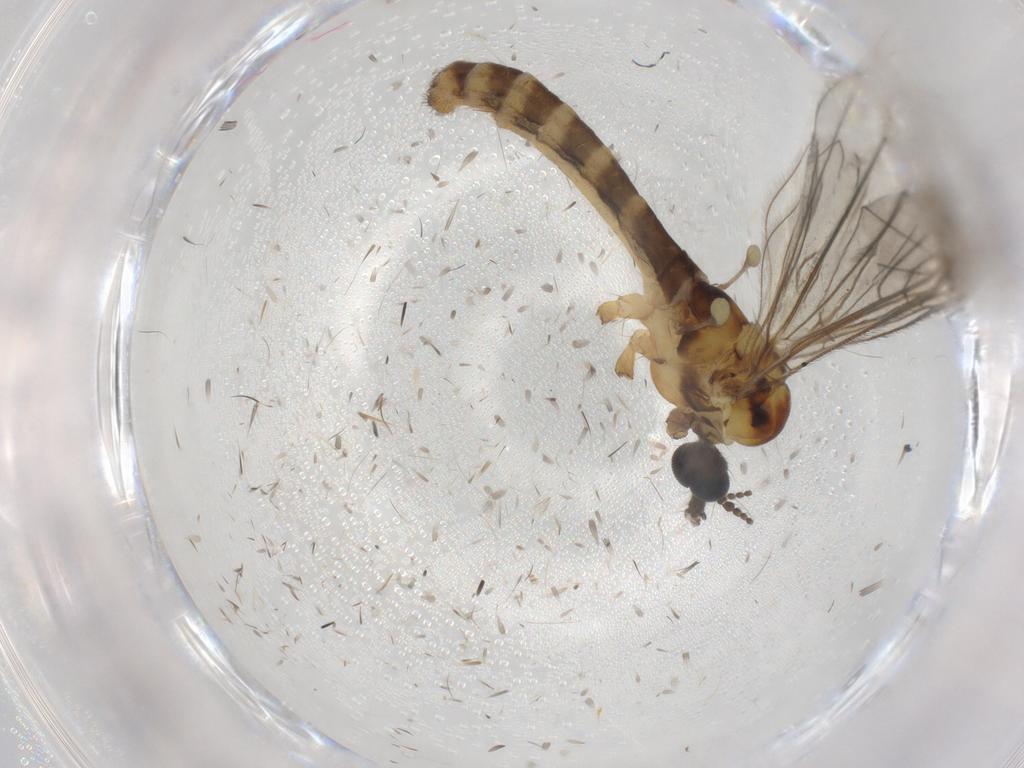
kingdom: Animalia
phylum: Arthropoda
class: Insecta
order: Diptera
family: Ceratopogonidae
